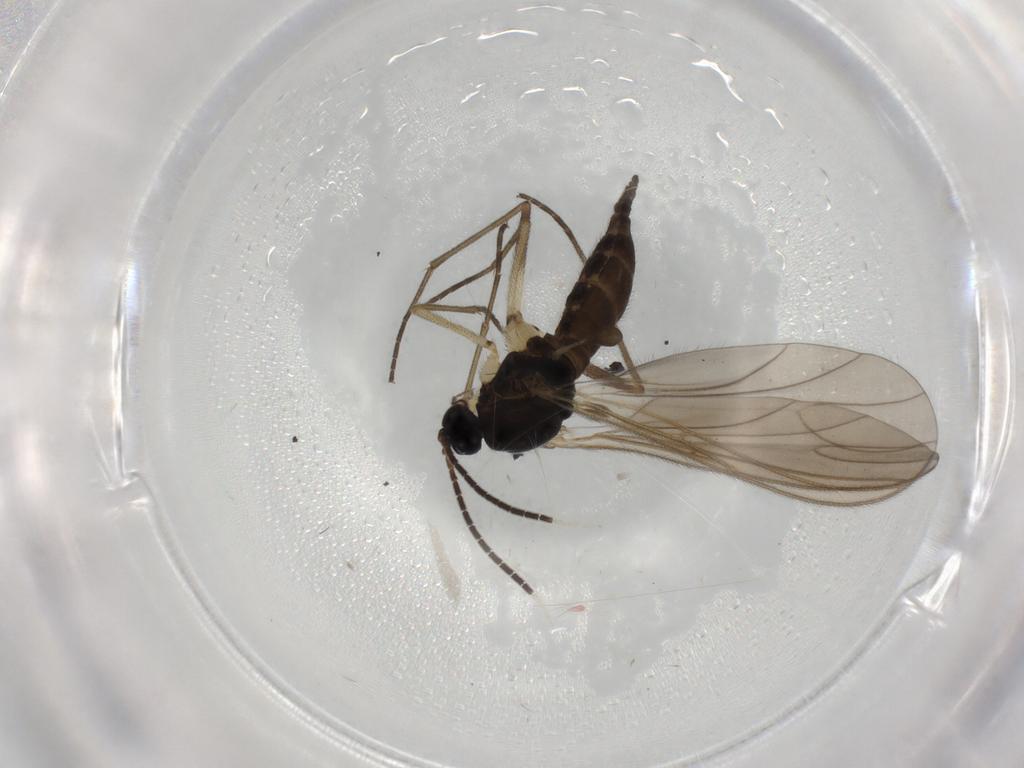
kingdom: Animalia
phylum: Arthropoda
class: Insecta
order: Diptera
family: Sciaridae
